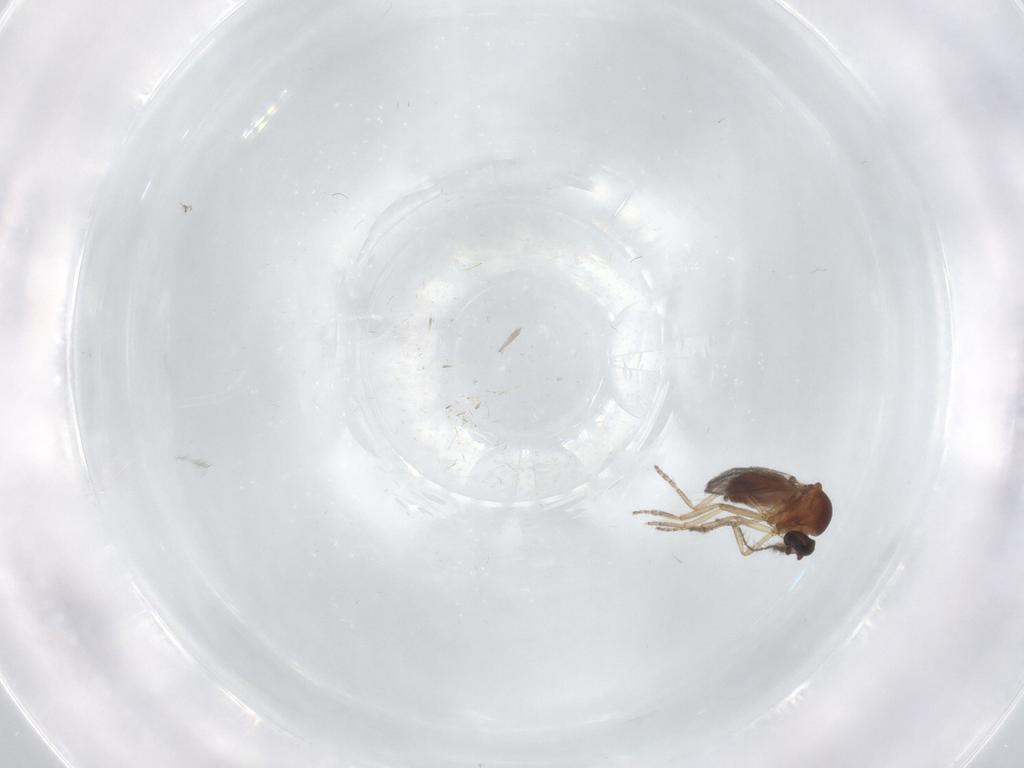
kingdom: Animalia
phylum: Arthropoda
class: Insecta
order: Diptera
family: Ceratopogonidae
